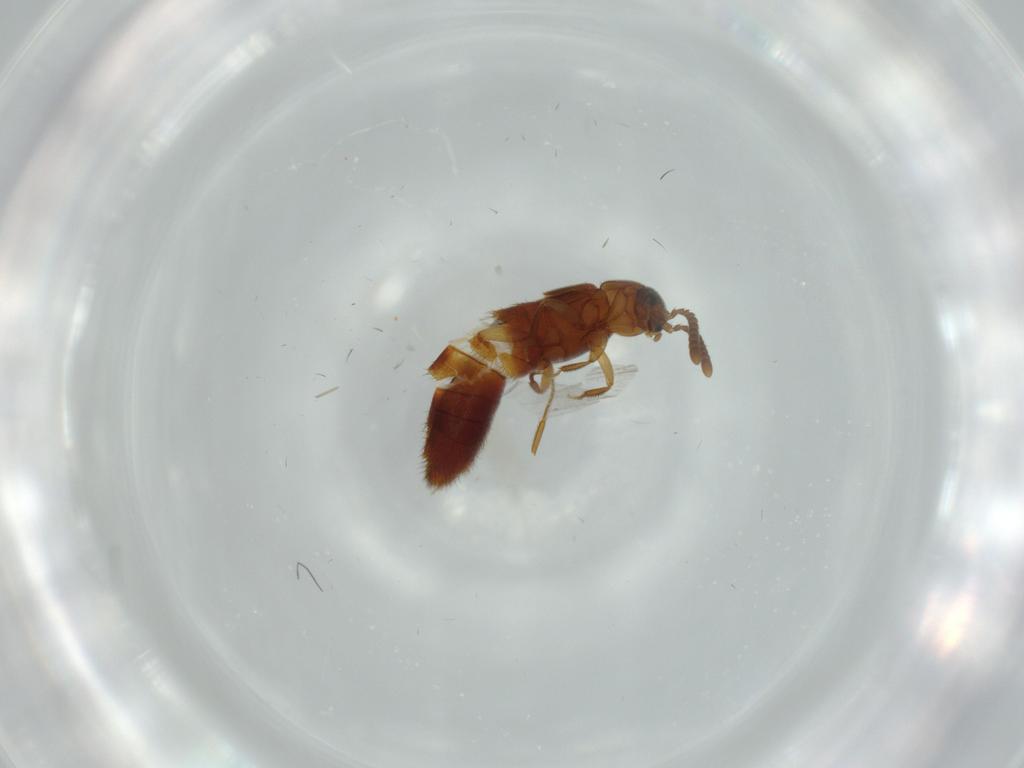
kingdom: Animalia
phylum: Arthropoda
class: Insecta
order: Coleoptera
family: Staphylinidae
